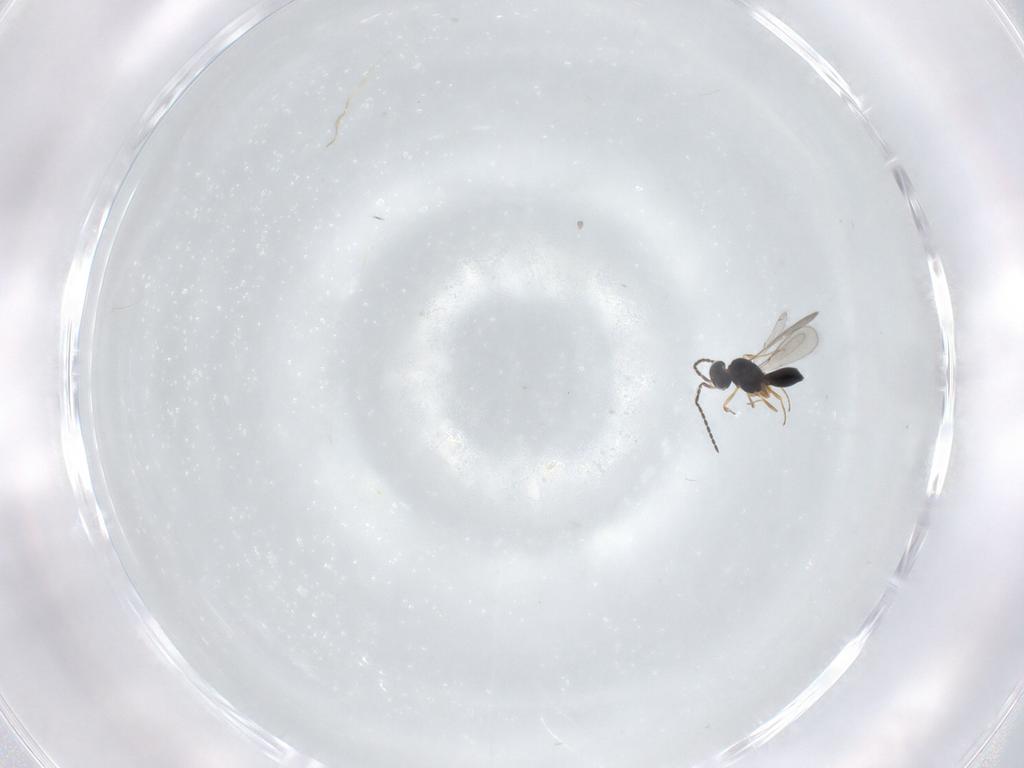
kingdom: Animalia
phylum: Arthropoda
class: Insecta
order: Hymenoptera
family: Scelionidae
